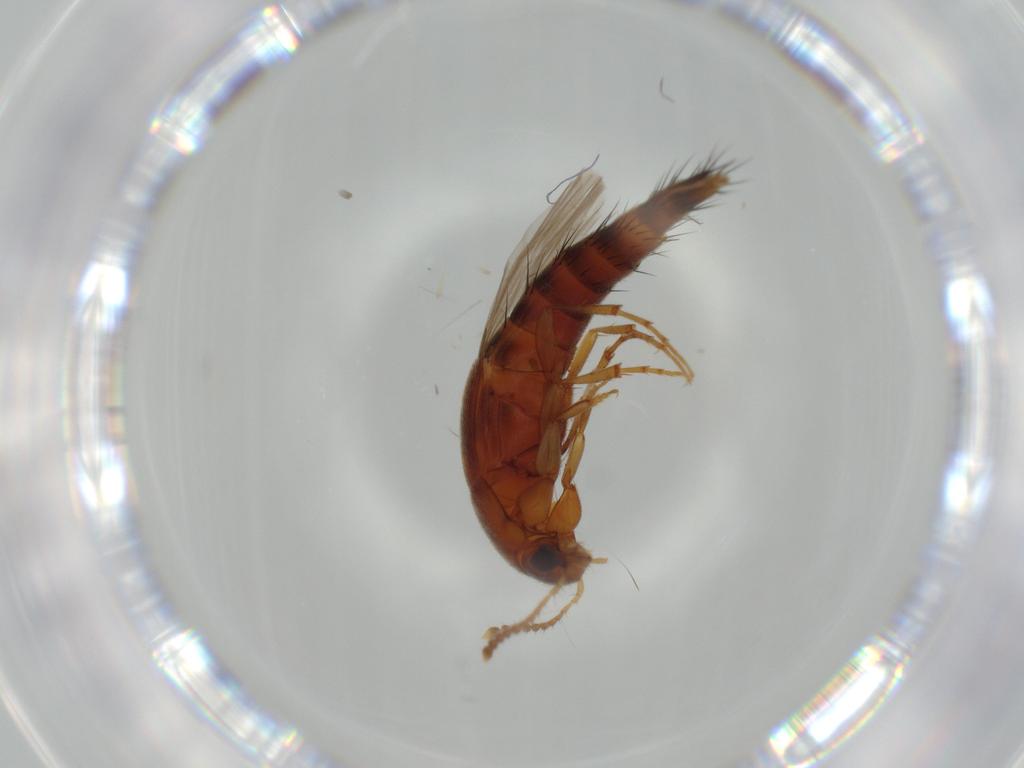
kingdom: Animalia
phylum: Arthropoda
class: Insecta
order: Coleoptera
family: Staphylinidae
